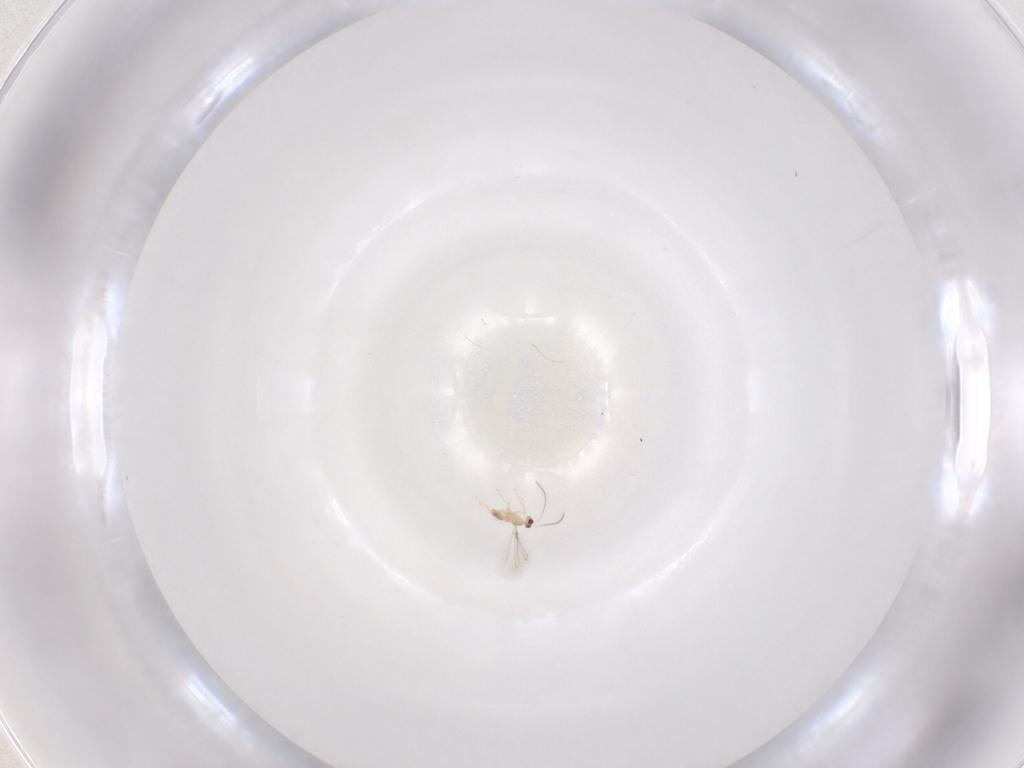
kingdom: Animalia
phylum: Arthropoda
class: Insecta
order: Hymenoptera
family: Mymaridae
